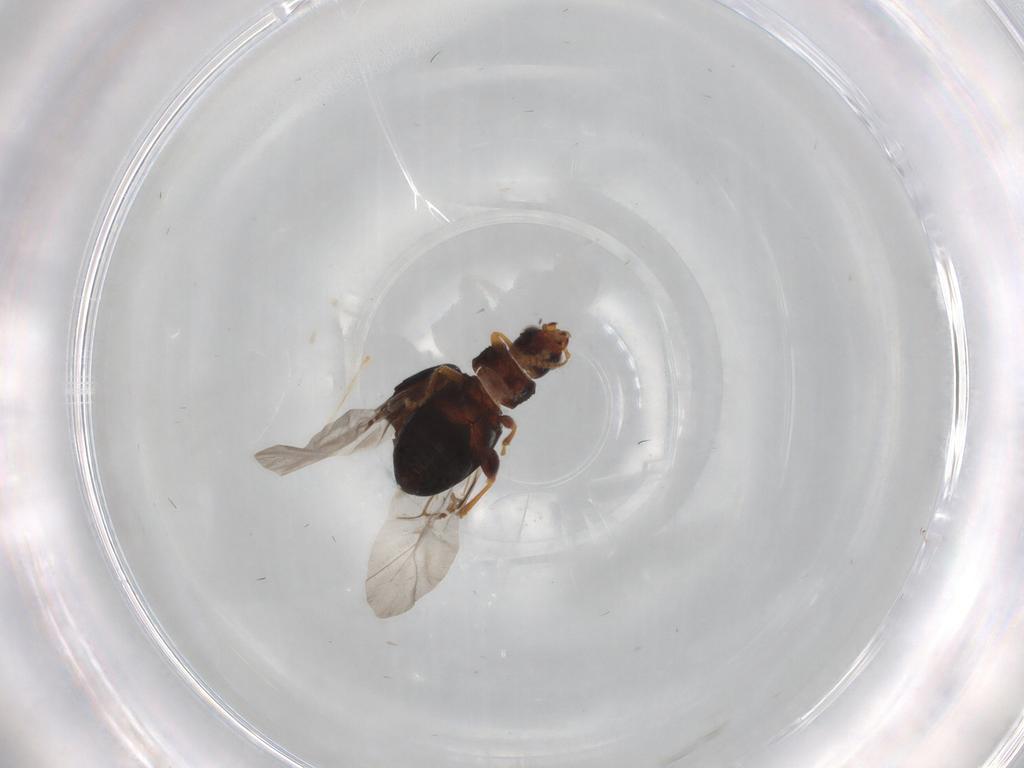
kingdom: Animalia
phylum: Arthropoda
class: Insecta
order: Coleoptera
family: Chrysomelidae
